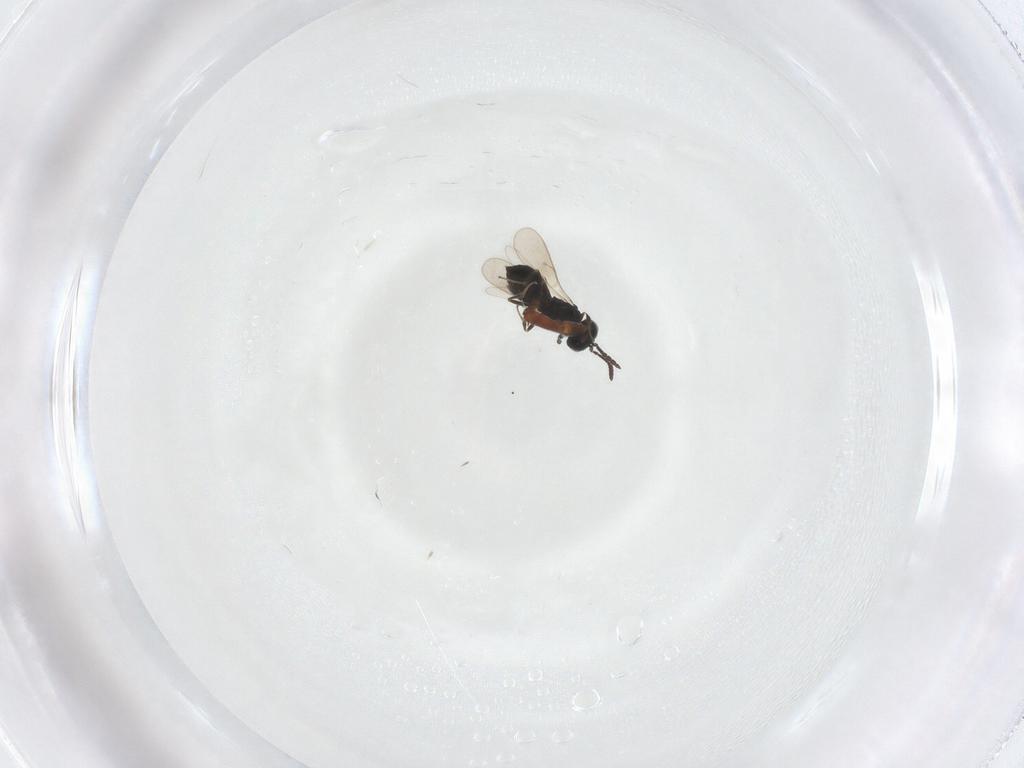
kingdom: Animalia
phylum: Arthropoda
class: Insecta
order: Hymenoptera
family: Scelionidae
